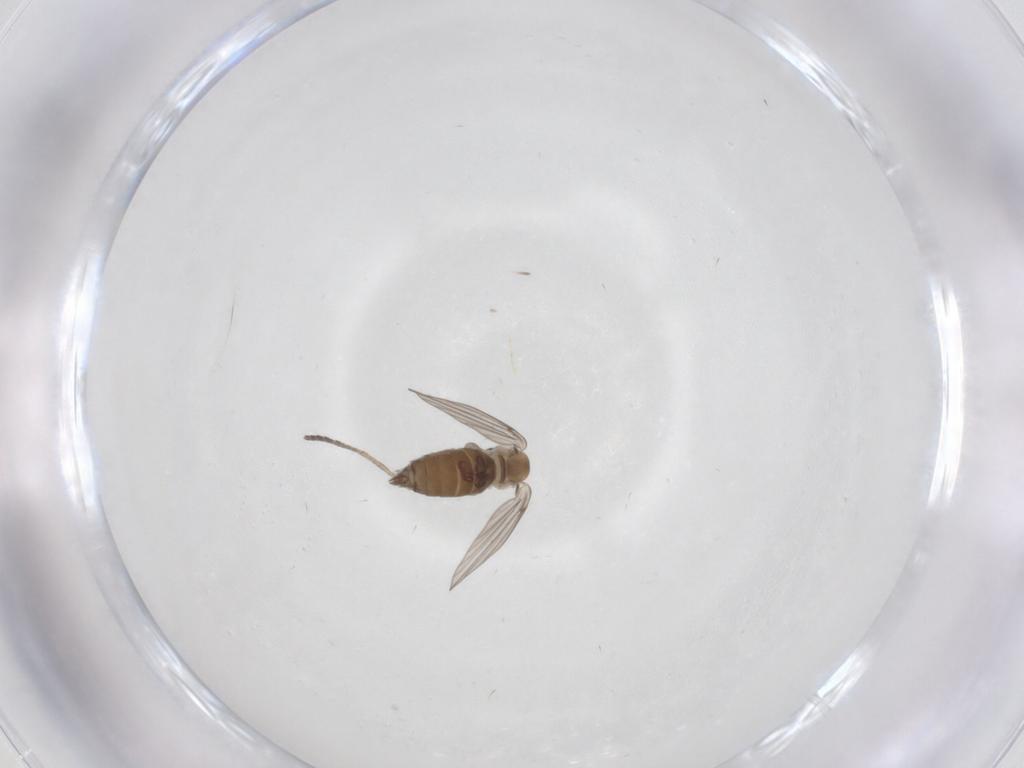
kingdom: Animalia
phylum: Arthropoda
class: Insecta
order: Diptera
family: Psychodidae
